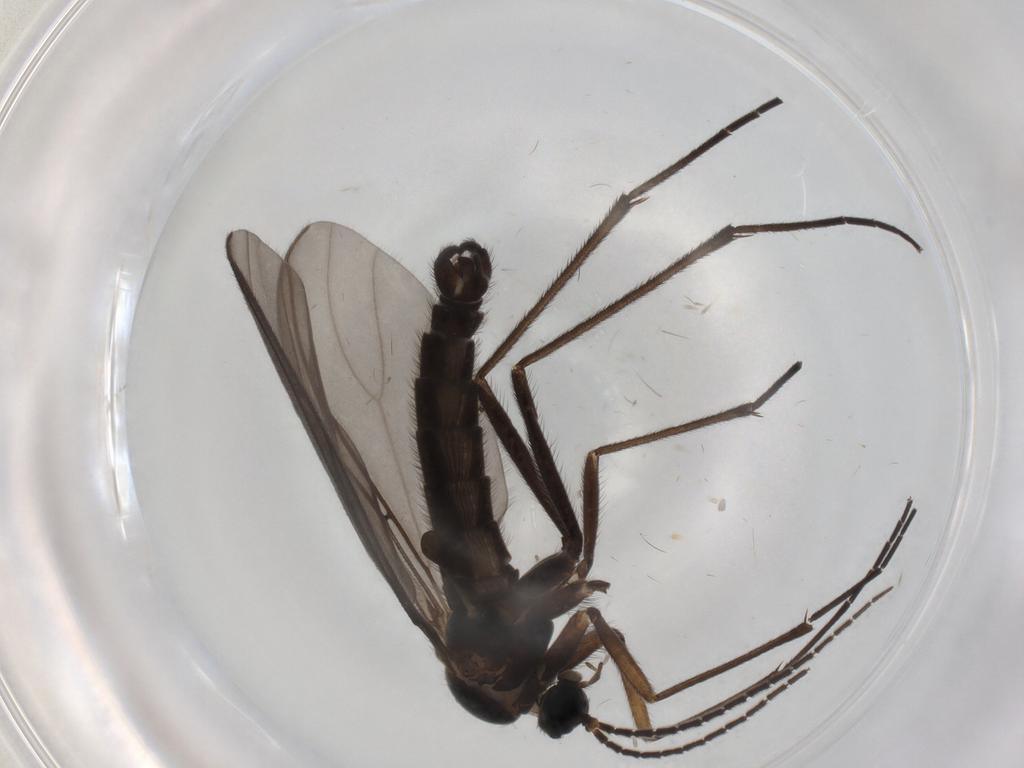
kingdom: Animalia
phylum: Arthropoda
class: Insecta
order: Diptera
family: Sciaridae
